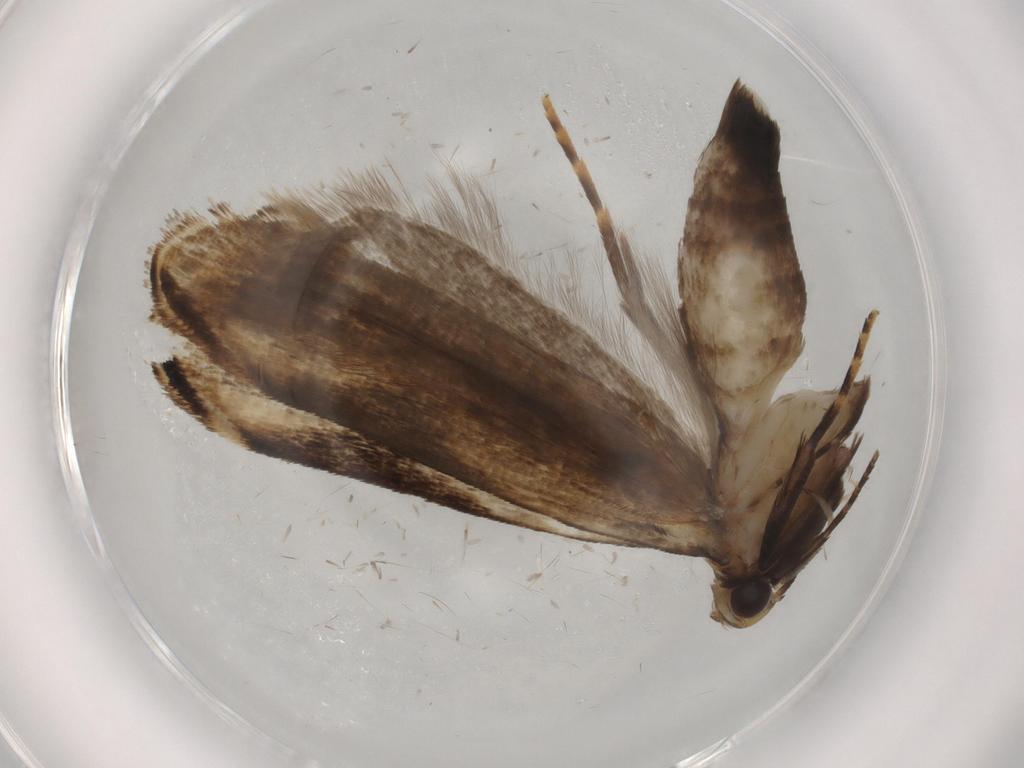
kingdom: Animalia
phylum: Arthropoda
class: Insecta
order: Lepidoptera
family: Gelechiidae
